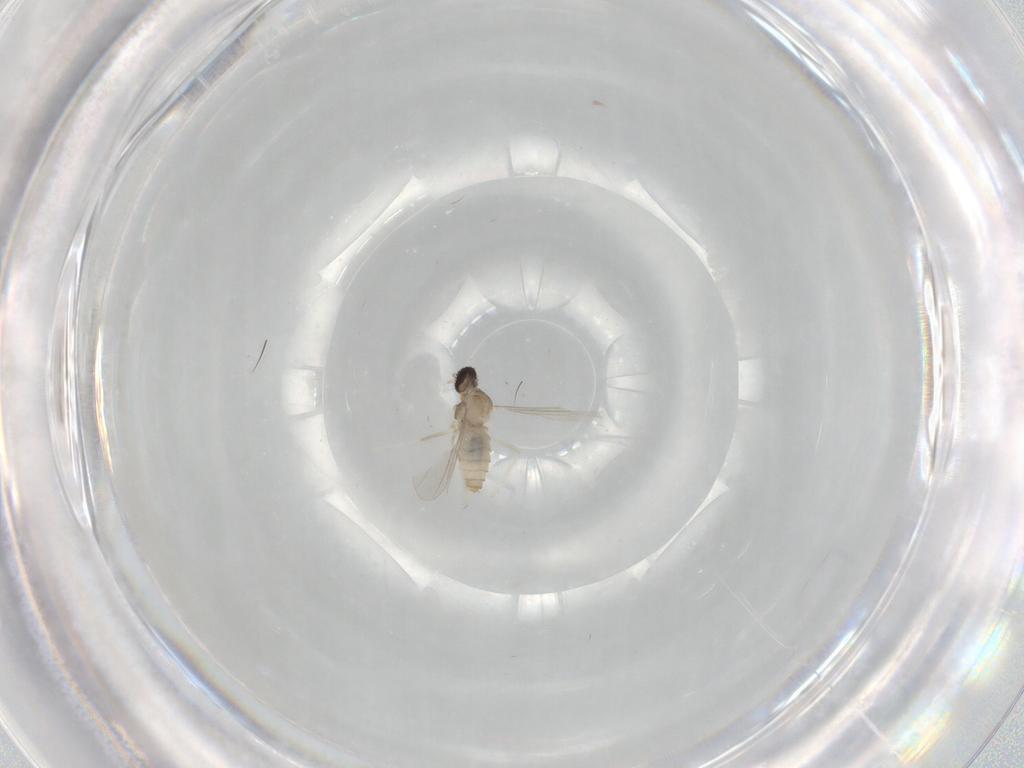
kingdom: Animalia
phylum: Arthropoda
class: Insecta
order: Diptera
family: Cecidomyiidae
